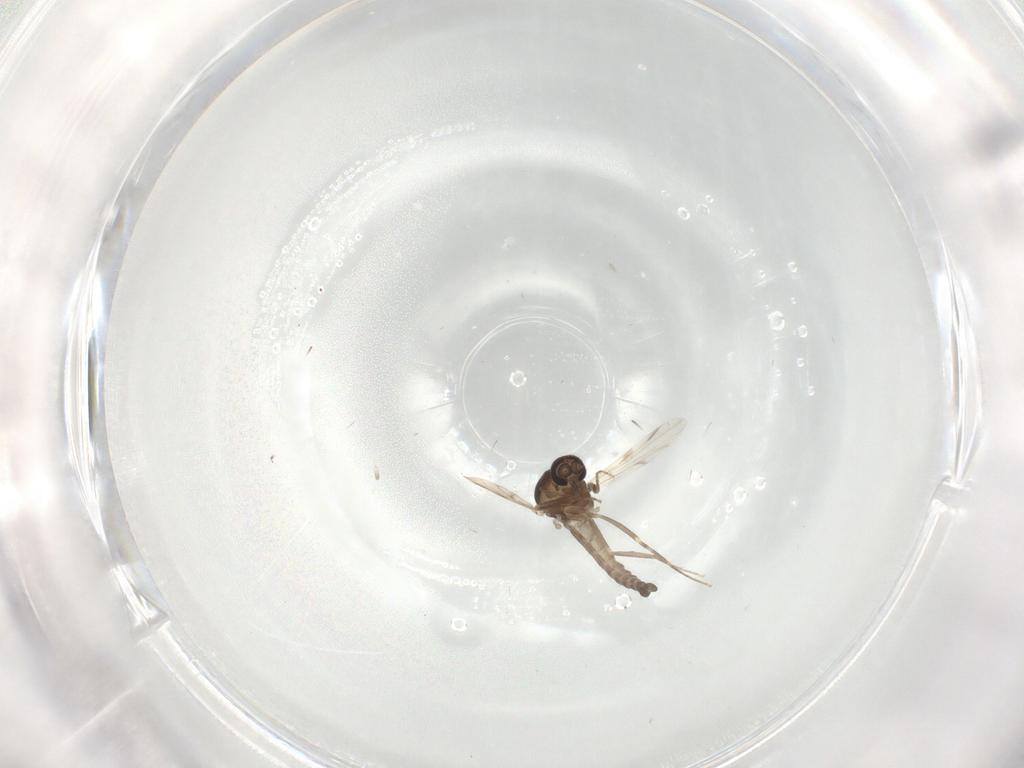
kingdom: Animalia
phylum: Arthropoda
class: Insecta
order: Diptera
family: Ceratopogonidae
